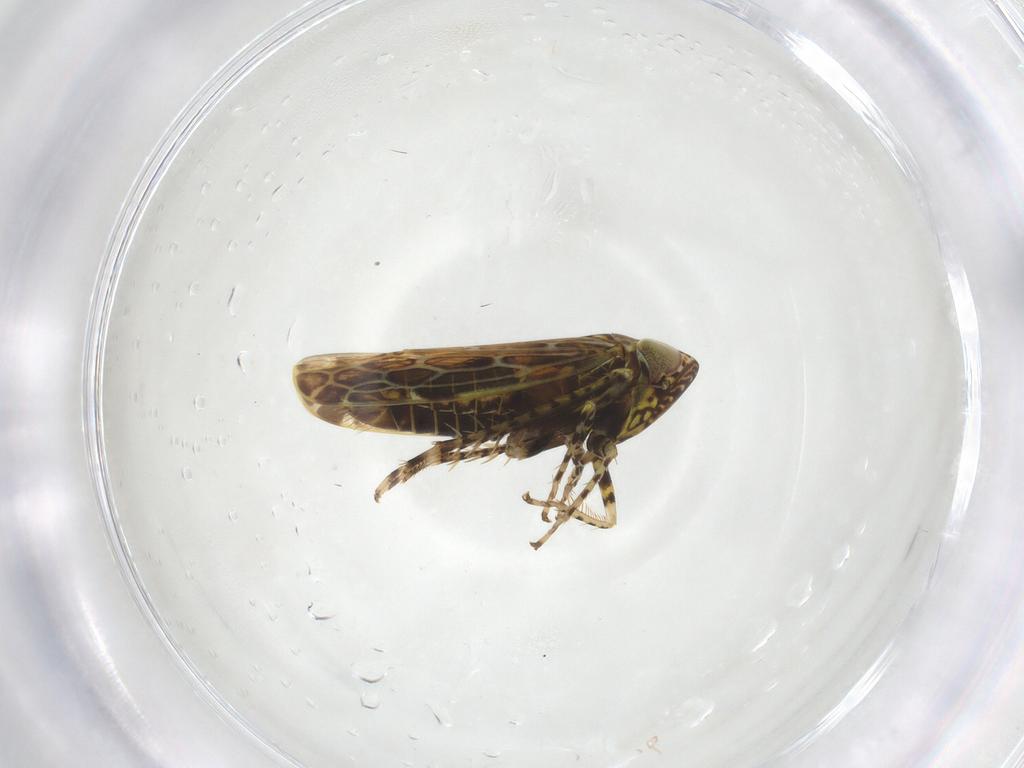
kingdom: Animalia
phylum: Arthropoda
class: Insecta
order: Hemiptera
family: Cicadellidae
